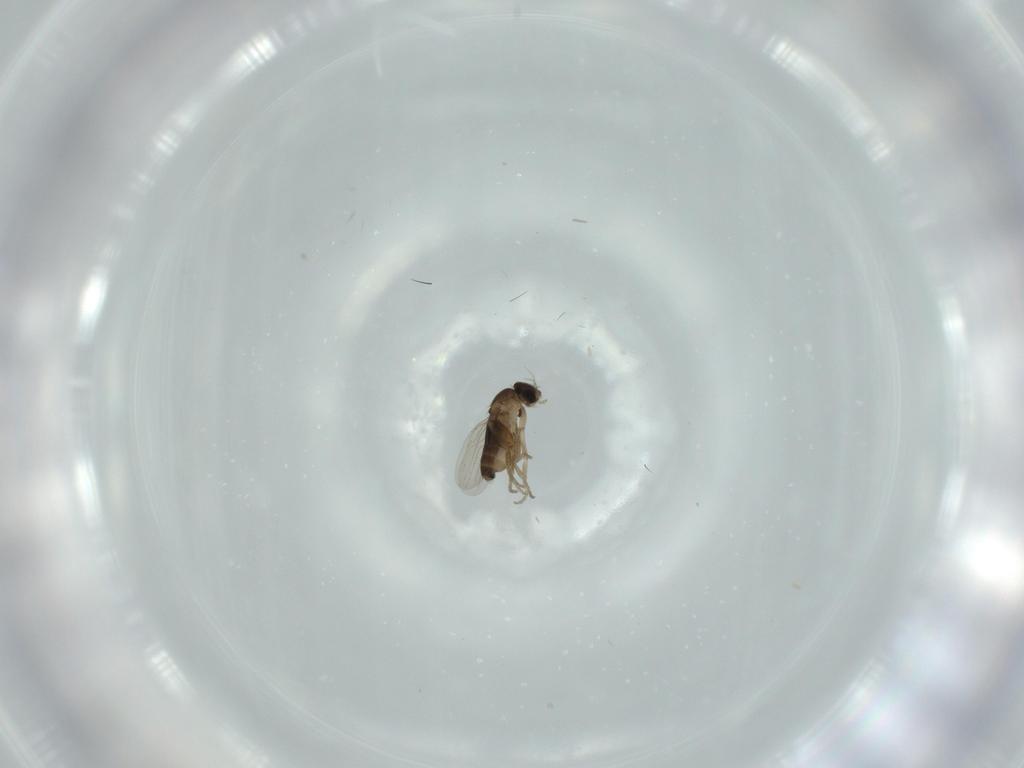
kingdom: Animalia
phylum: Arthropoda
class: Insecta
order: Diptera
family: Phoridae
